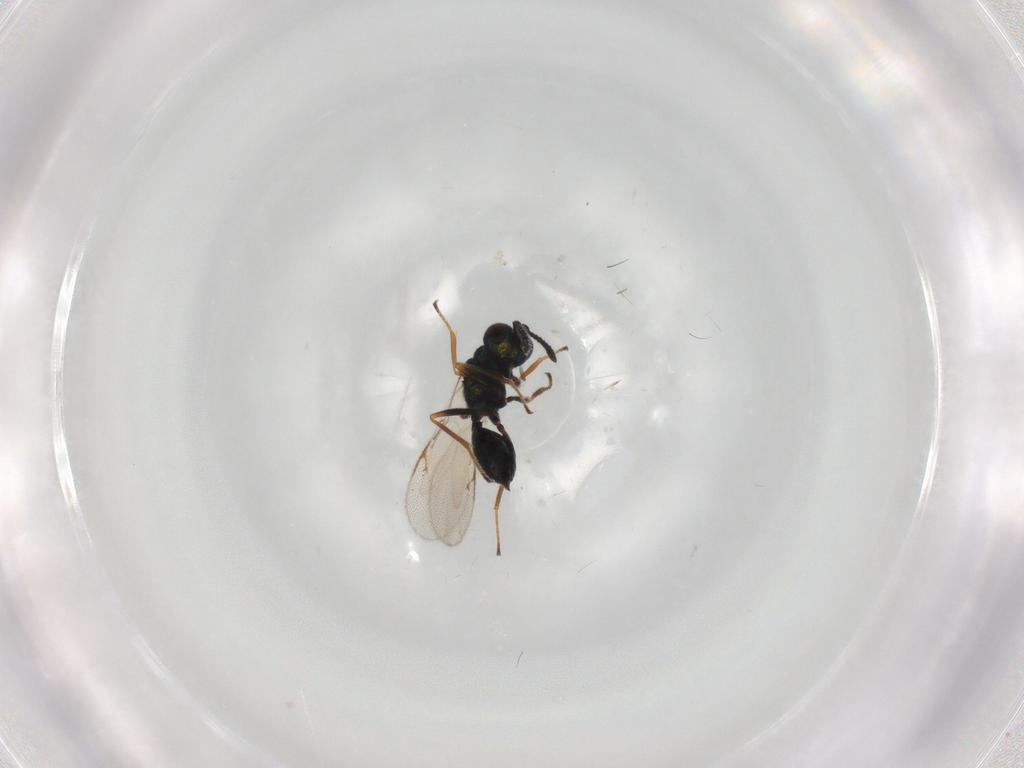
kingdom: Animalia
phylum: Arthropoda
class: Insecta
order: Hymenoptera
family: Pteromalidae
